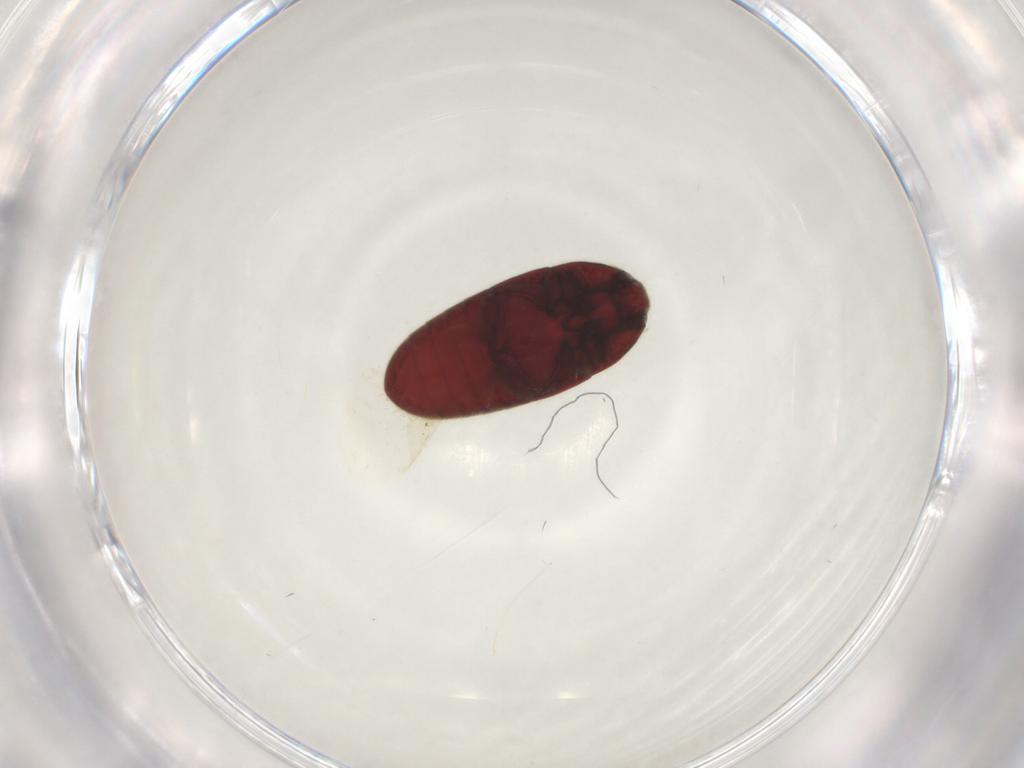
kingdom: Animalia
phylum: Arthropoda
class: Insecta
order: Coleoptera
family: Throscidae
